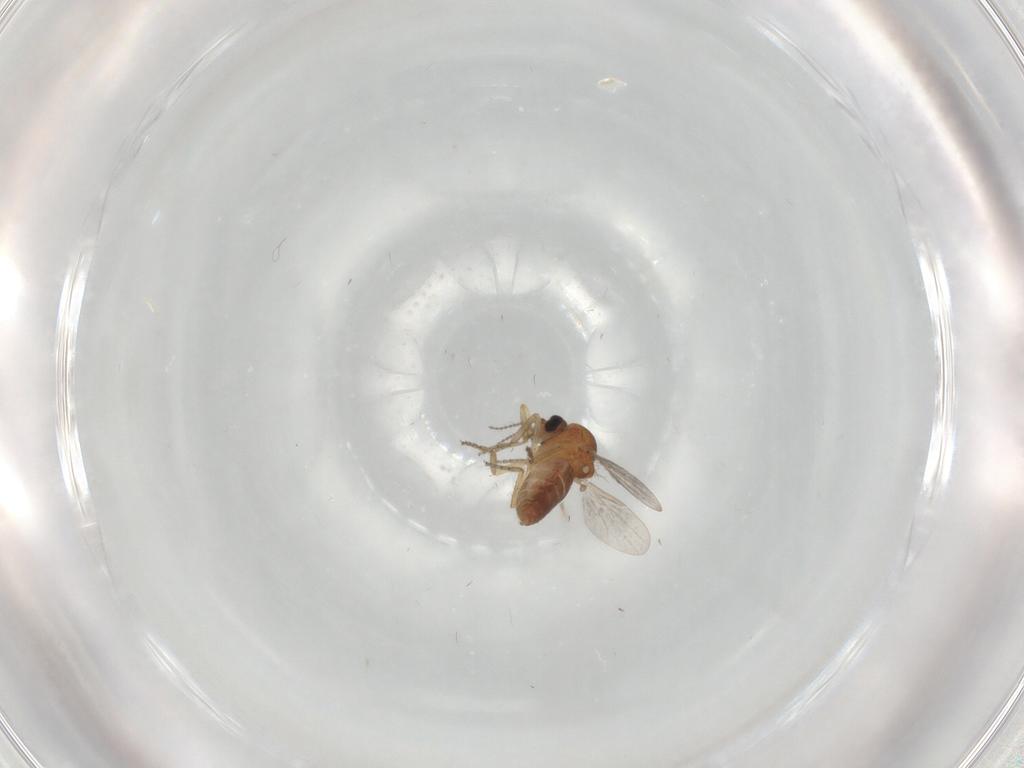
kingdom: Animalia
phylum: Arthropoda
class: Insecta
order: Diptera
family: Ceratopogonidae
